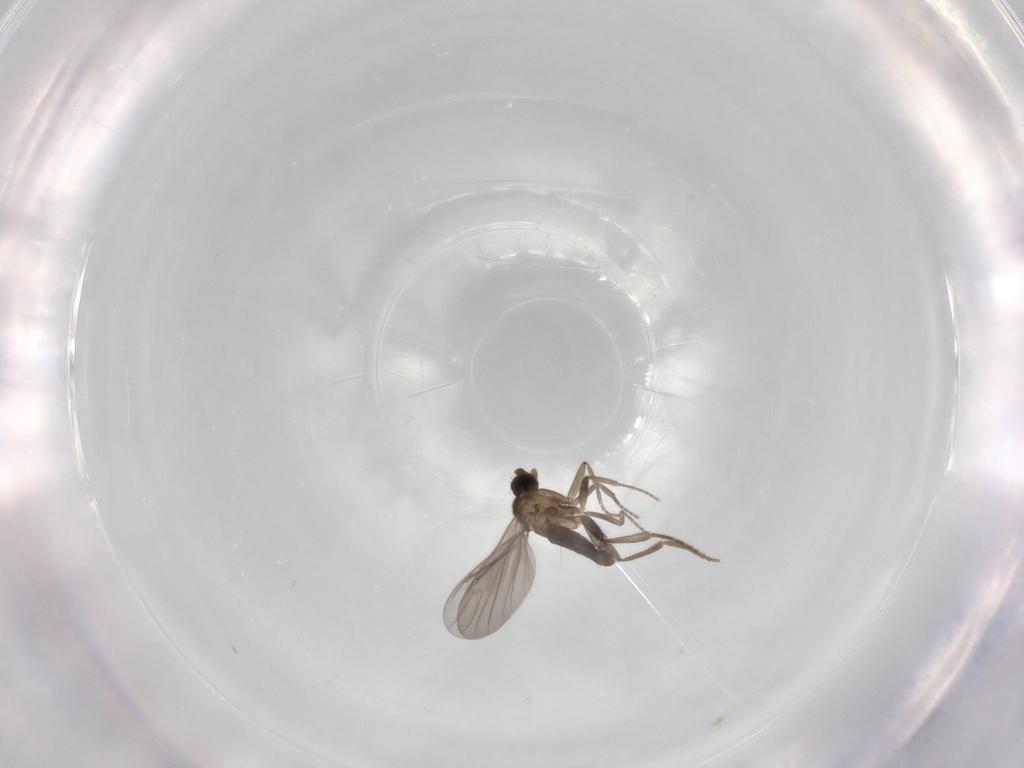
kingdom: Animalia
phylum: Arthropoda
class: Insecta
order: Diptera
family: Phoridae
